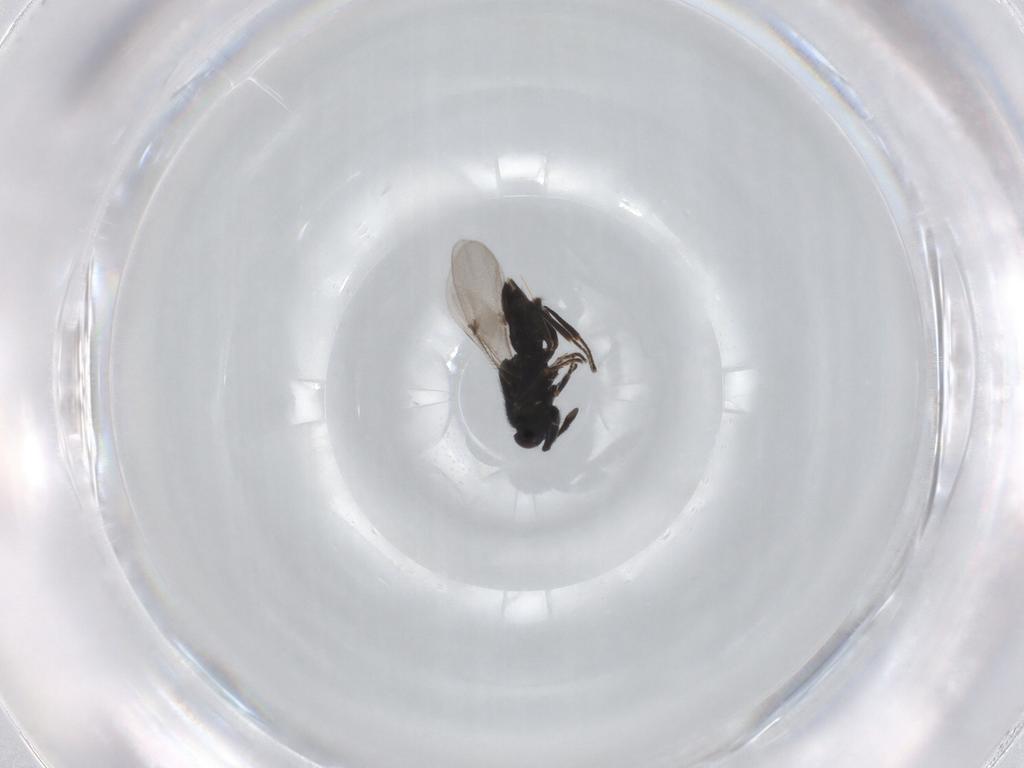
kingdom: Animalia
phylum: Arthropoda
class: Insecta
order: Hymenoptera
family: Encyrtidae
